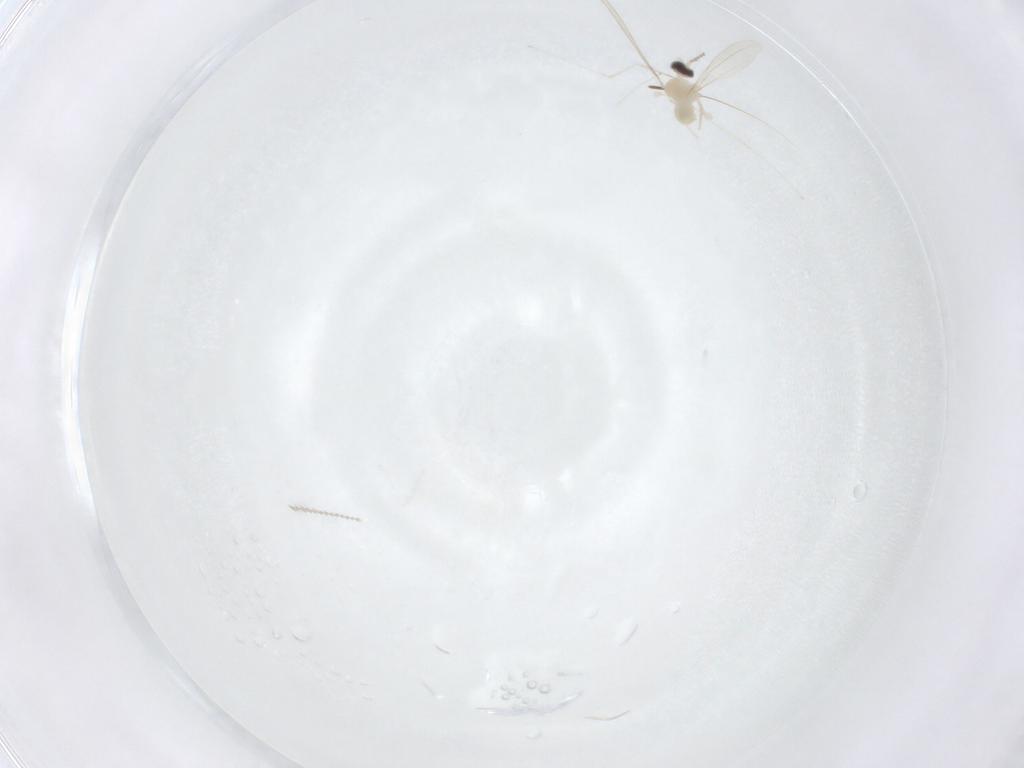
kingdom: Animalia
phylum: Arthropoda
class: Insecta
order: Diptera
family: Cecidomyiidae
